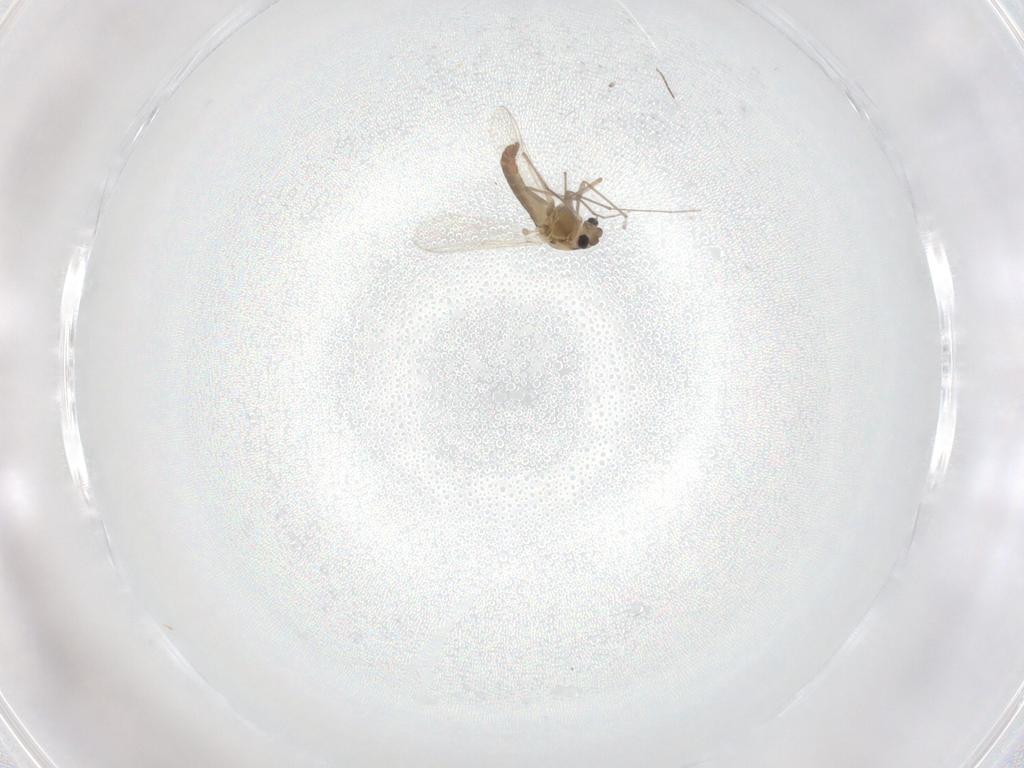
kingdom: Animalia
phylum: Arthropoda
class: Insecta
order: Diptera
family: Chironomidae
